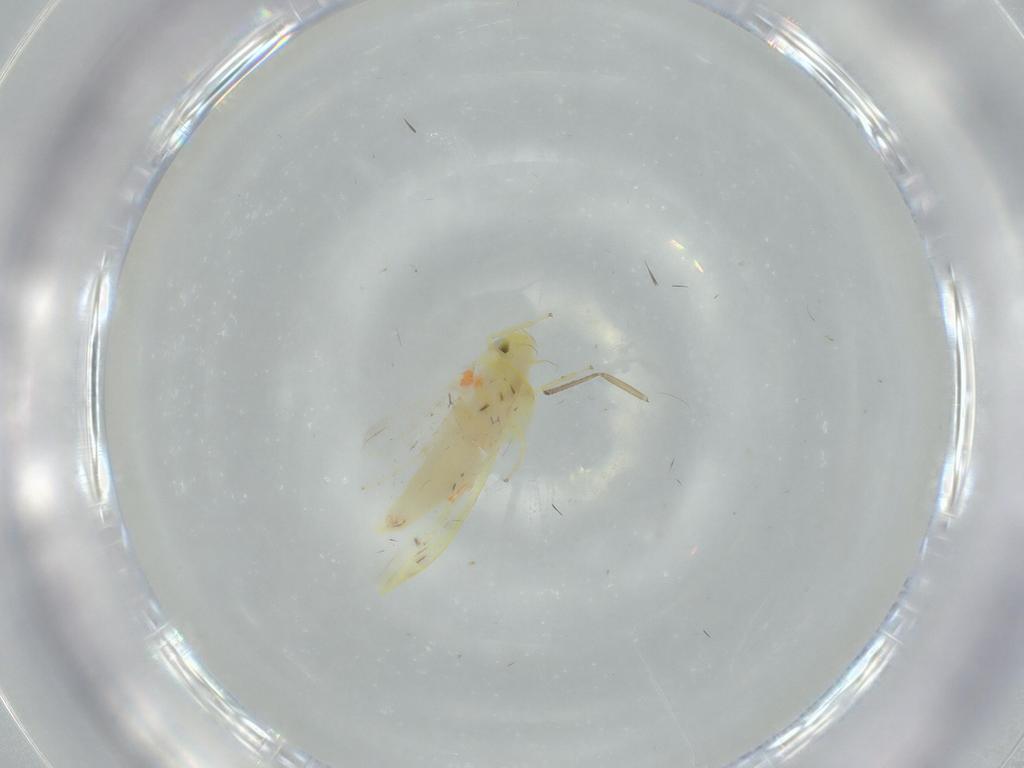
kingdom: Animalia
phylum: Arthropoda
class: Insecta
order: Hemiptera
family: Cicadellidae
